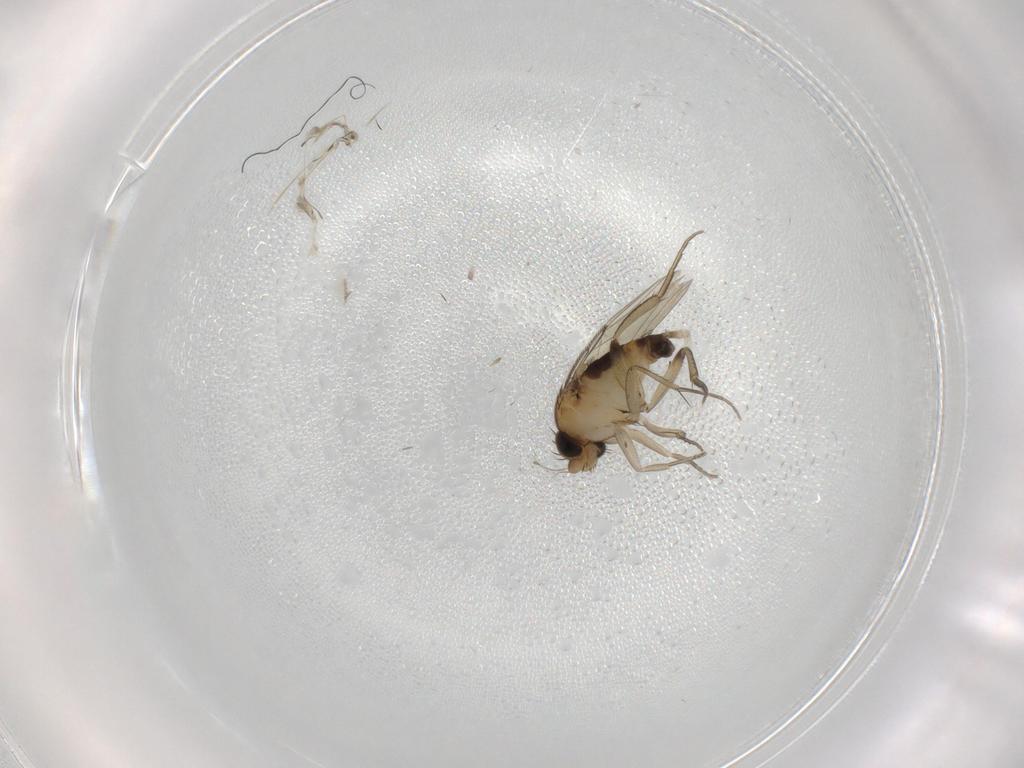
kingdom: Animalia
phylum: Arthropoda
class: Insecta
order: Diptera
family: Phoridae
